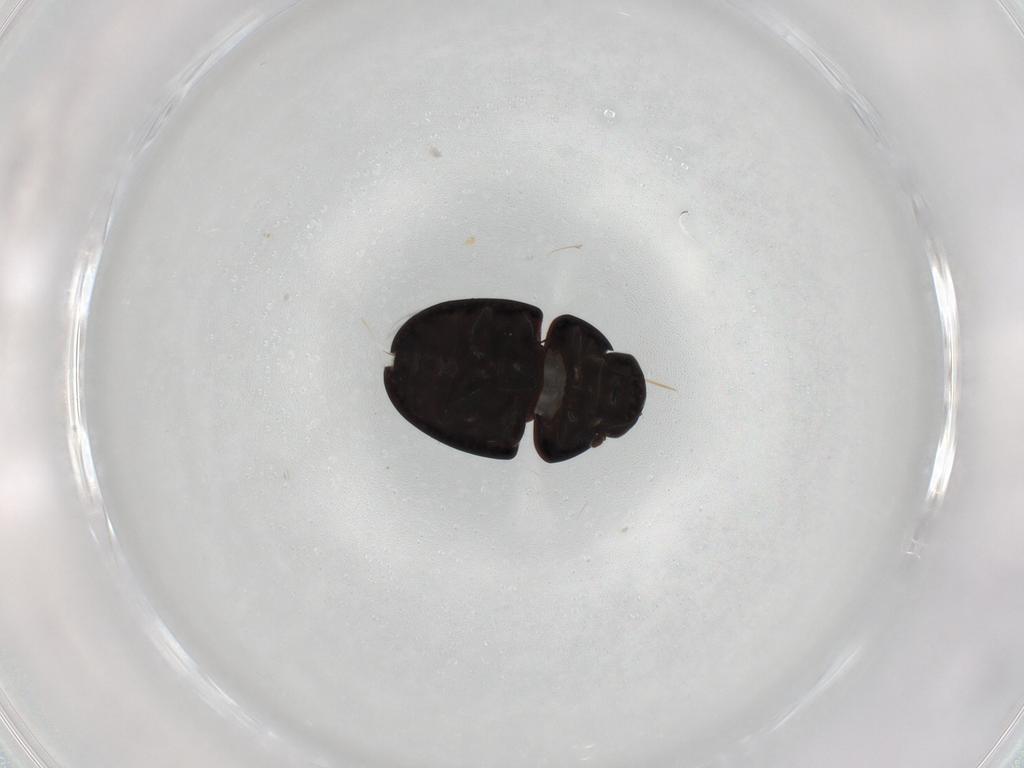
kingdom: Animalia
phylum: Arthropoda
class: Insecta
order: Coleoptera
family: Phalacridae
